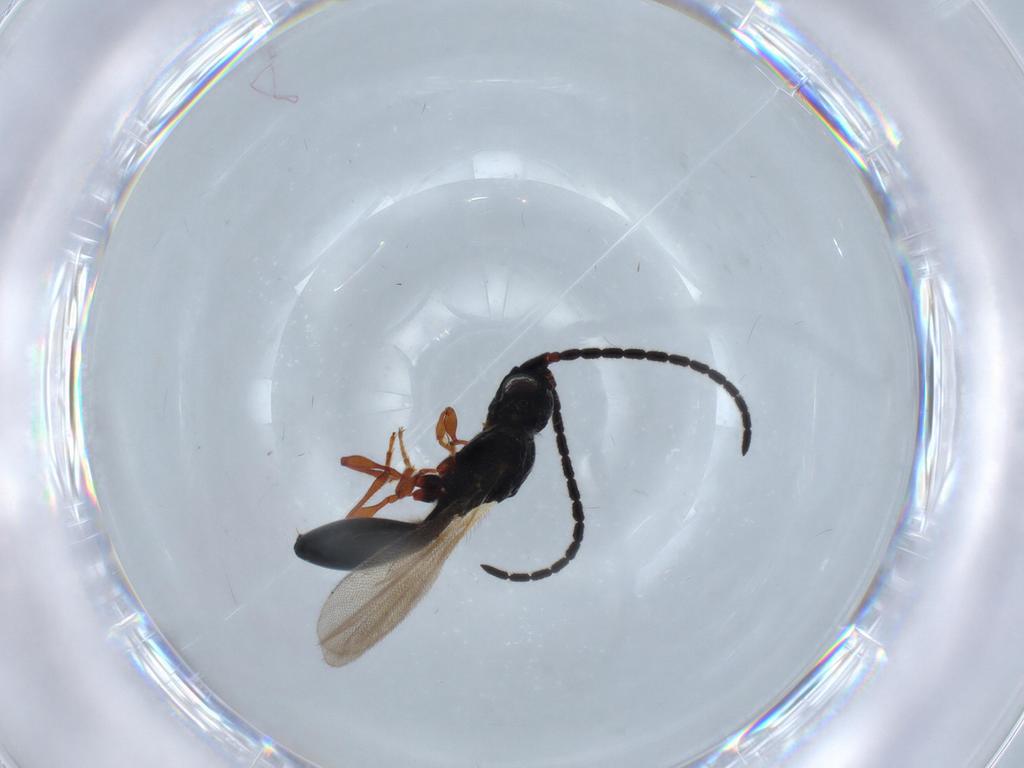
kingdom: Animalia
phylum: Arthropoda
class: Insecta
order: Hymenoptera
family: Diapriidae
